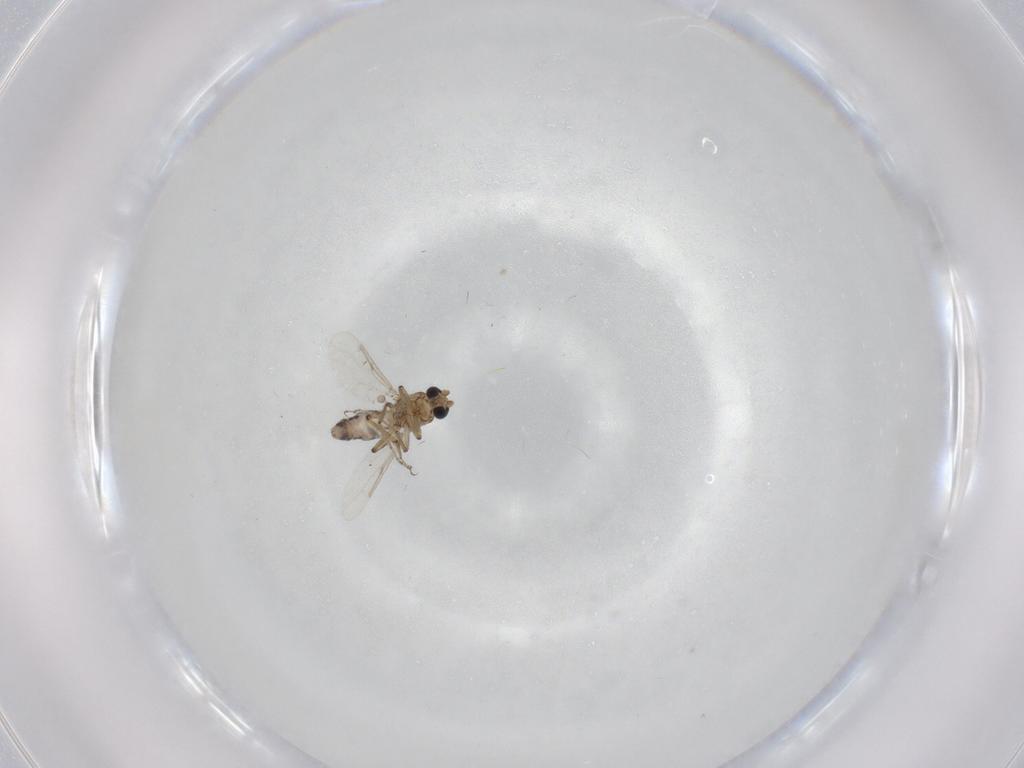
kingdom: Animalia
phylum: Arthropoda
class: Insecta
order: Diptera
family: Ceratopogonidae
